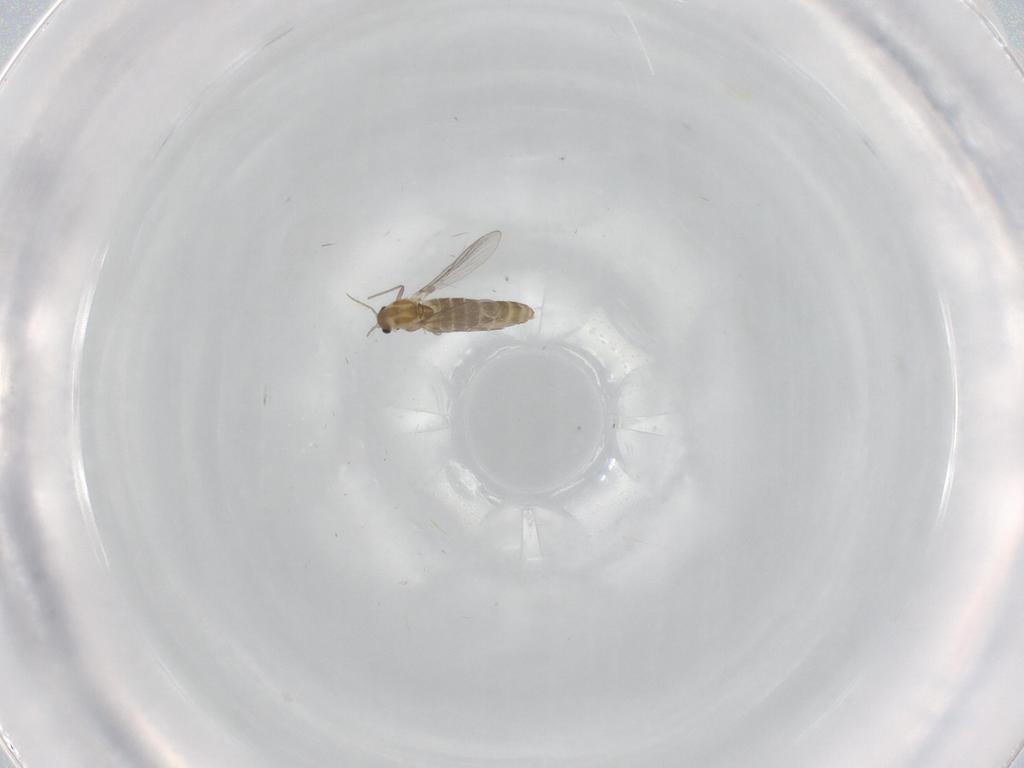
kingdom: Animalia
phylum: Arthropoda
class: Insecta
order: Diptera
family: Chironomidae
